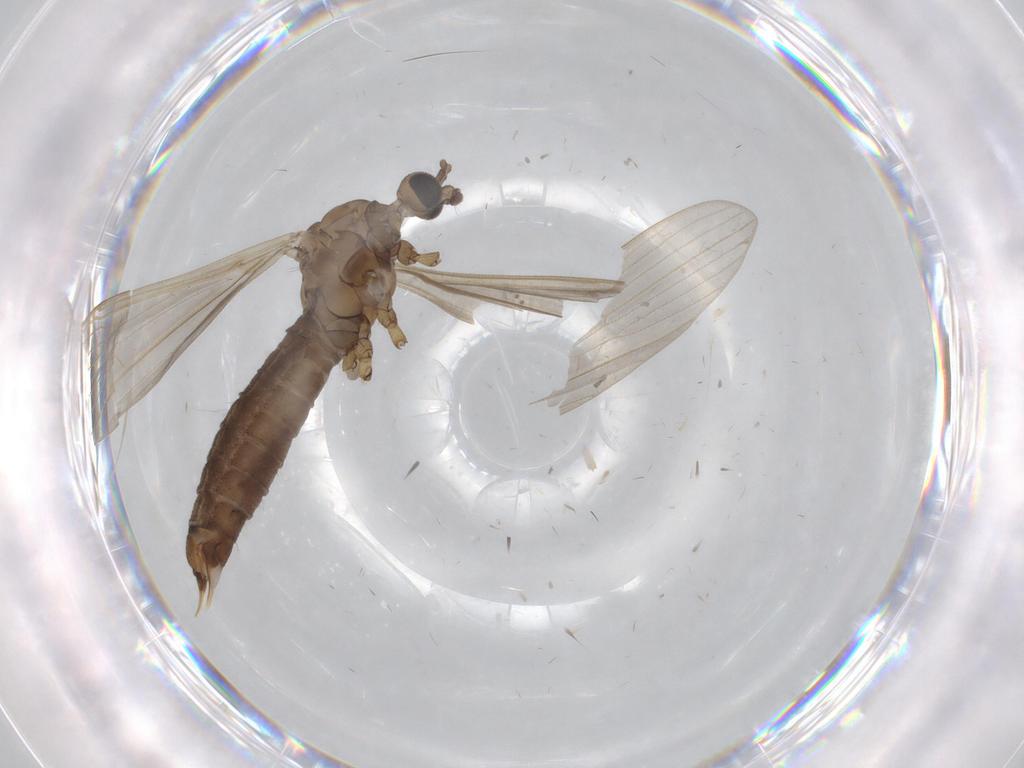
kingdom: Animalia
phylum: Arthropoda
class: Insecta
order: Diptera
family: Limoniidae
